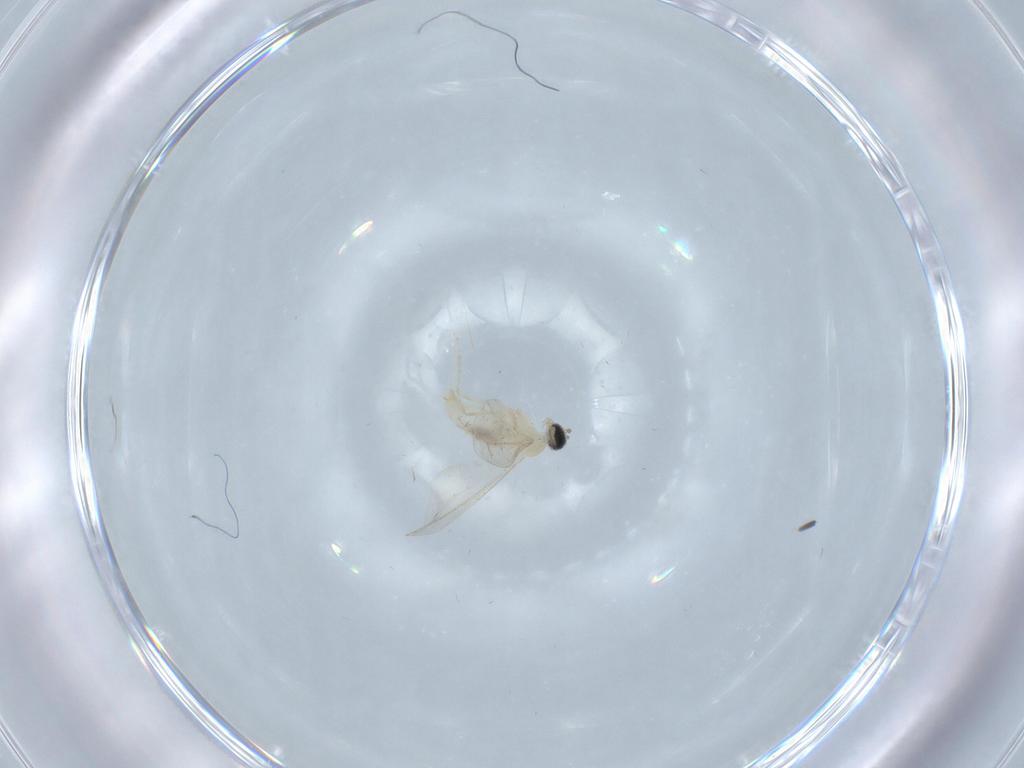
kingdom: Animalia
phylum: Arthropoda
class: Insecta
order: Diptera
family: Cecidomyiidae
